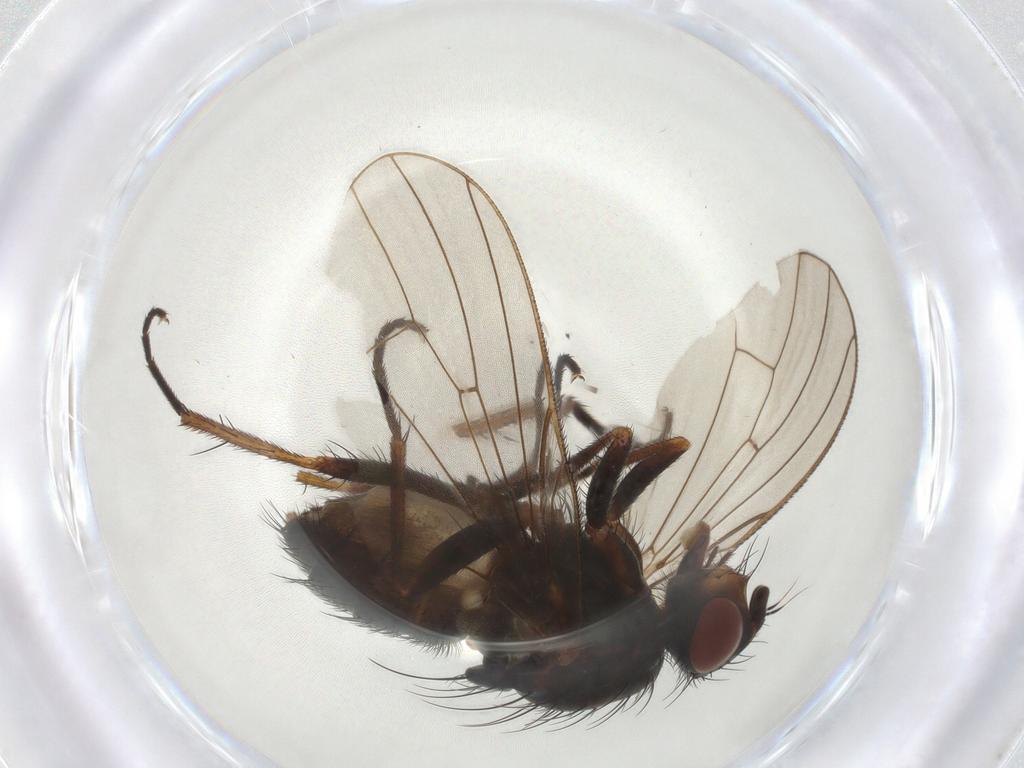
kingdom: Animalia
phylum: Arthropoda
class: Insecta
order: Diptera
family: Anthomyiidae
